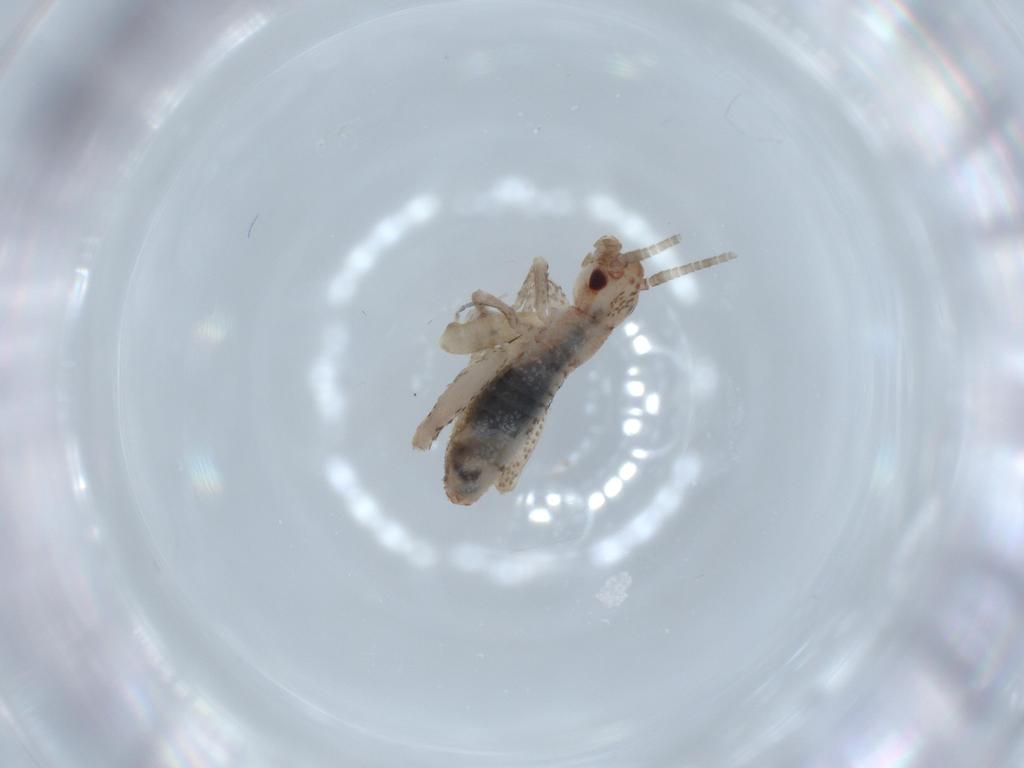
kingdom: Animalia
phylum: Arthropoda
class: Insecta
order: Orthoptera
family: Mogoplistidae
